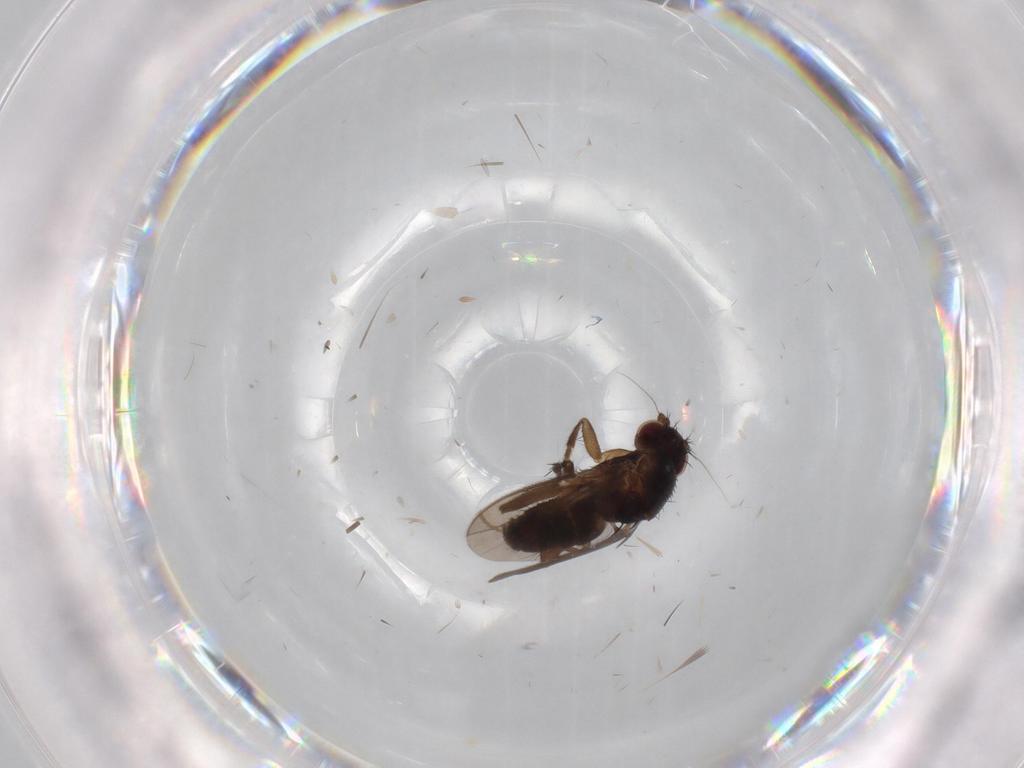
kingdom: Animalia
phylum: Arthropoda
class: Insecta
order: Diptera
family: Sphaeroceridae
